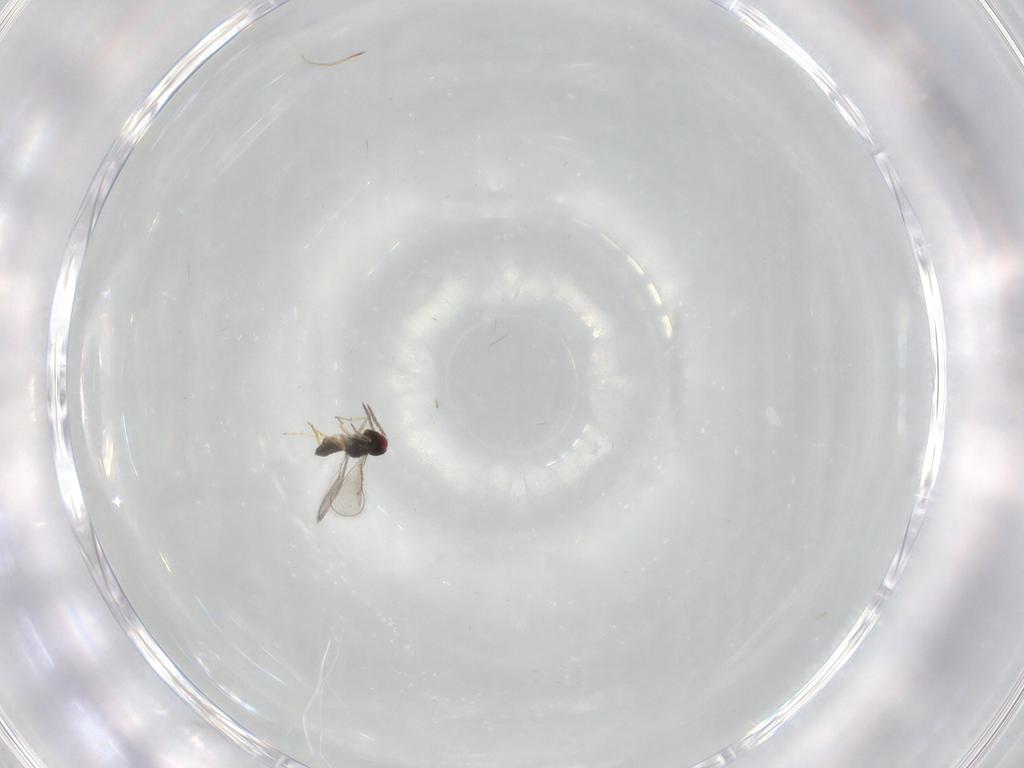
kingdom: Animalia
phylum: Arthropoda
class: Insecta
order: Hymenoptera
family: Eulophidae
